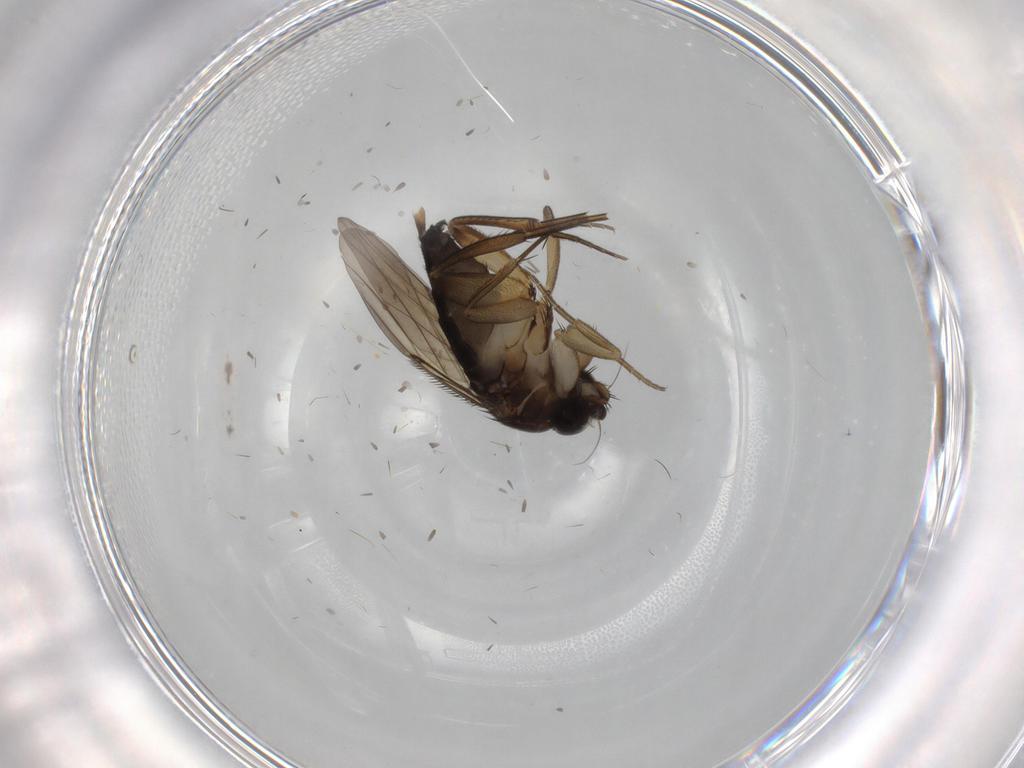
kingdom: Animalia
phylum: Arthropoda
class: Insecta
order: Diptera
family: Phoridae
